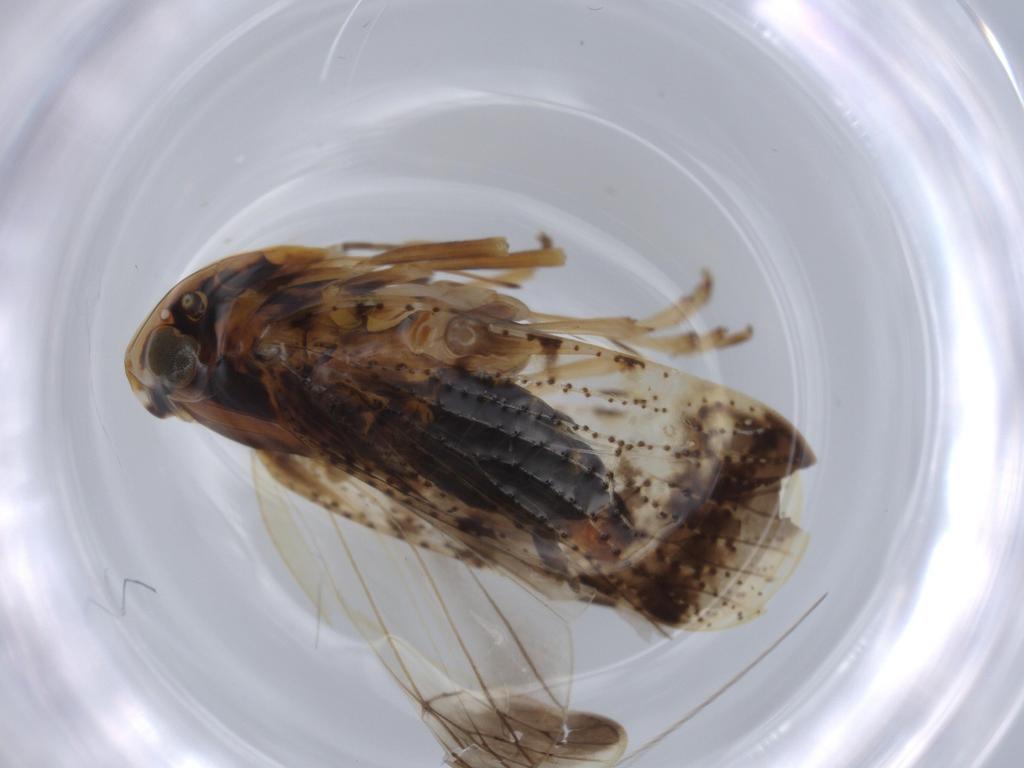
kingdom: Animalia
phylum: Arthropoda
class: Insecta
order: Hemiptera
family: Cixiidae
